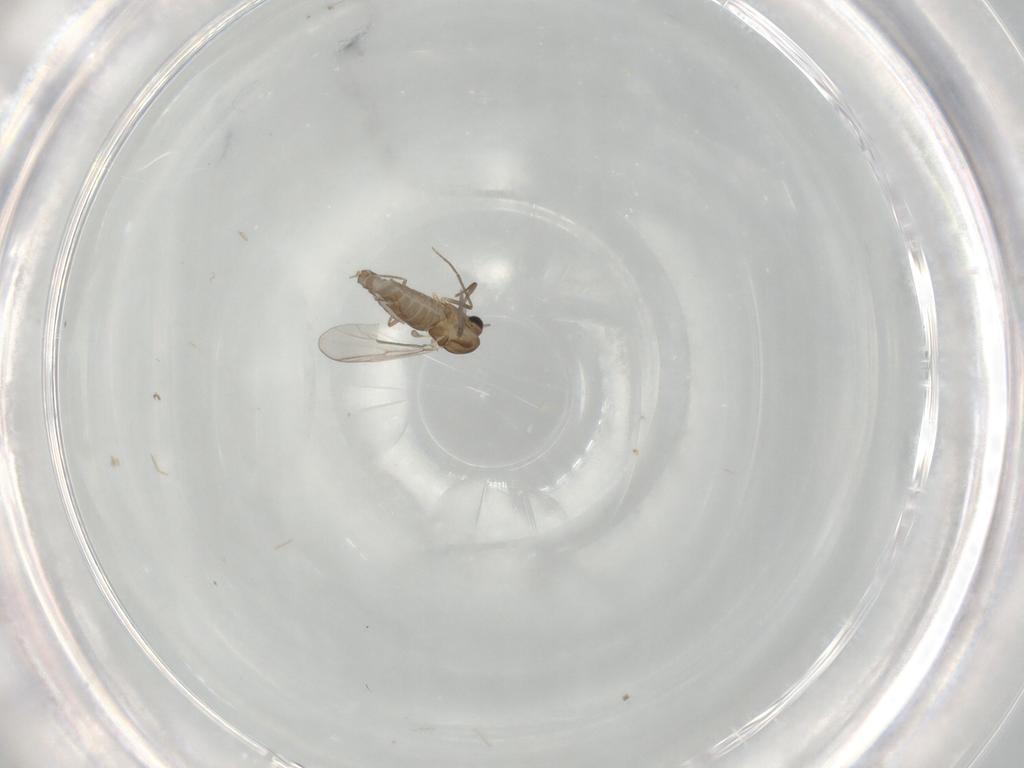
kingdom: Animalia
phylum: Arthropoda
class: Insecta
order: Diptera
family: Chironomidae
